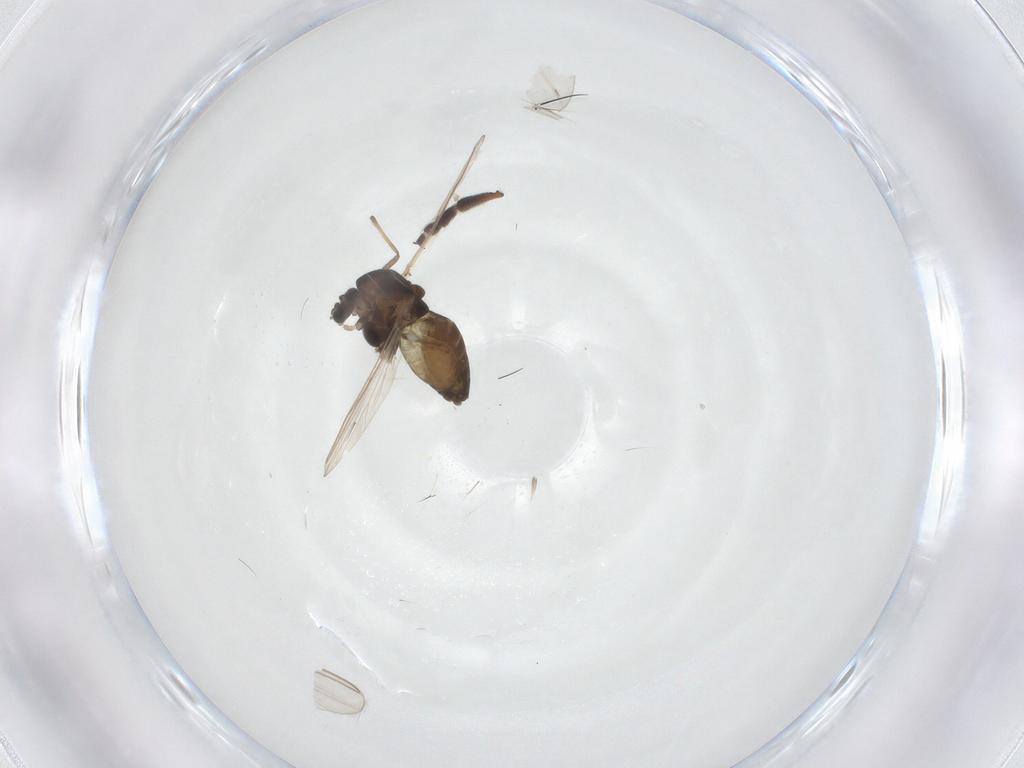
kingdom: Animalia
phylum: Arthropoda
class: Insecta
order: Diptera
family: Chironomidae
